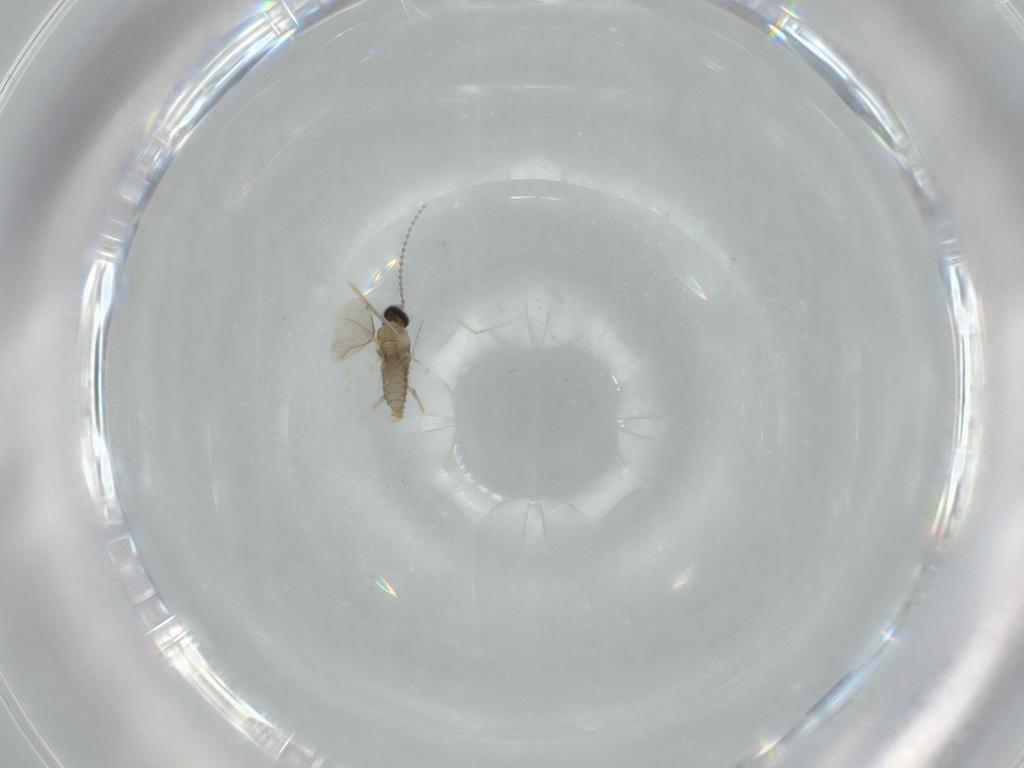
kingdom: Animalia
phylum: Arthropoda
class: Insecta
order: Diptera
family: Cecidomyiidae
